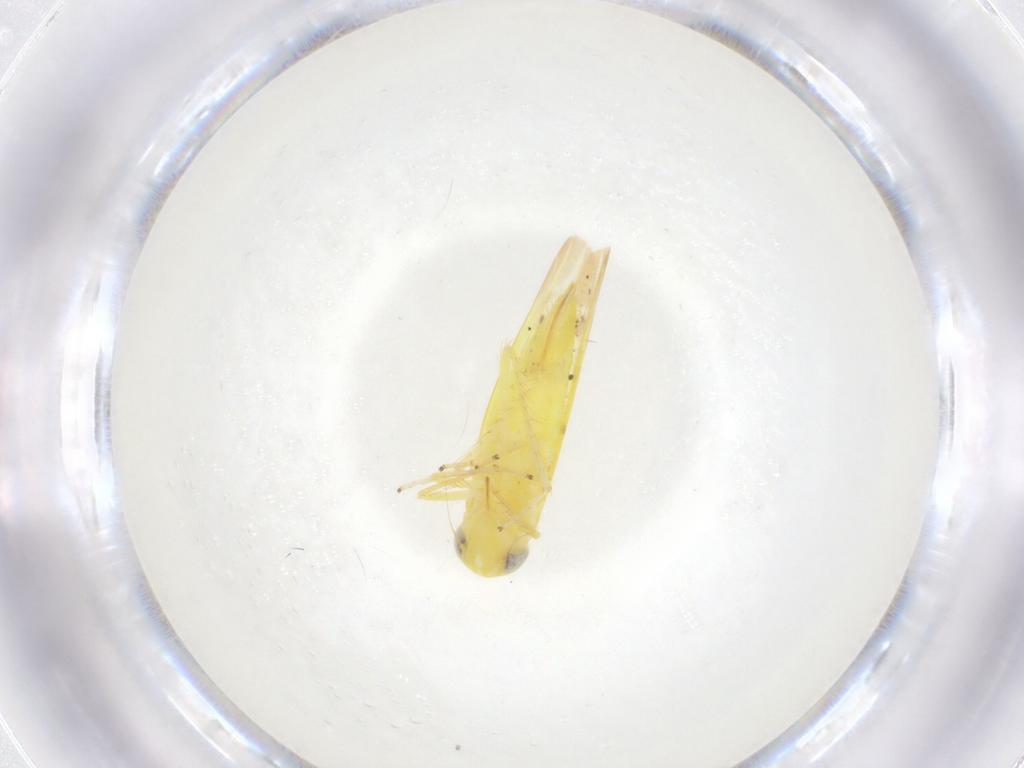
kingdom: Animalia
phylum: Arthropoda
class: Insecta
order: Hemiptera
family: Cicadellidae
